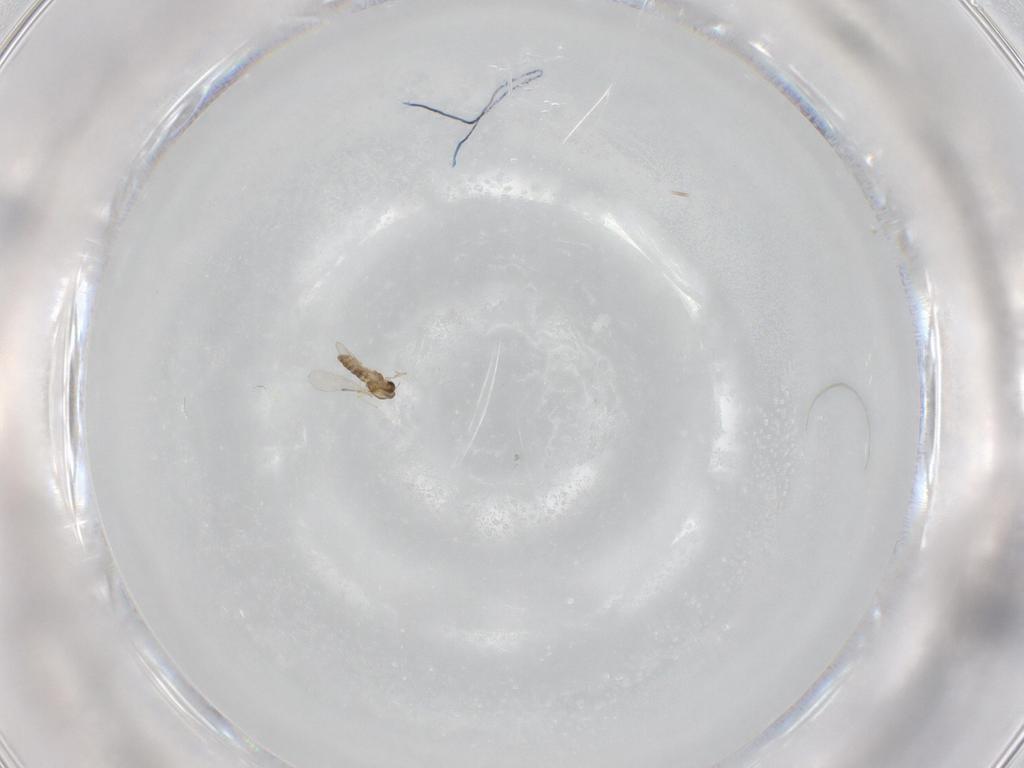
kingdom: Animalia
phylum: Arthropoda
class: Insecta
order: Diptera
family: Chironomidae
